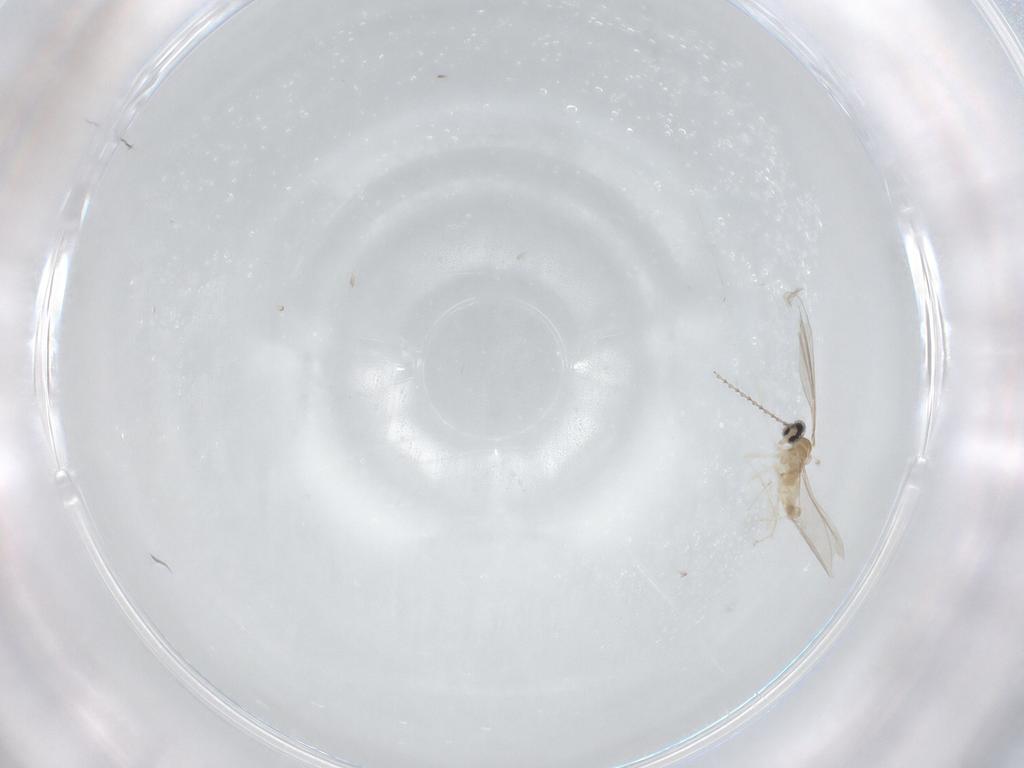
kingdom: Animalia
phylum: Arthropoda
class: Insecta
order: Diptera
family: Cecidomyiidae
